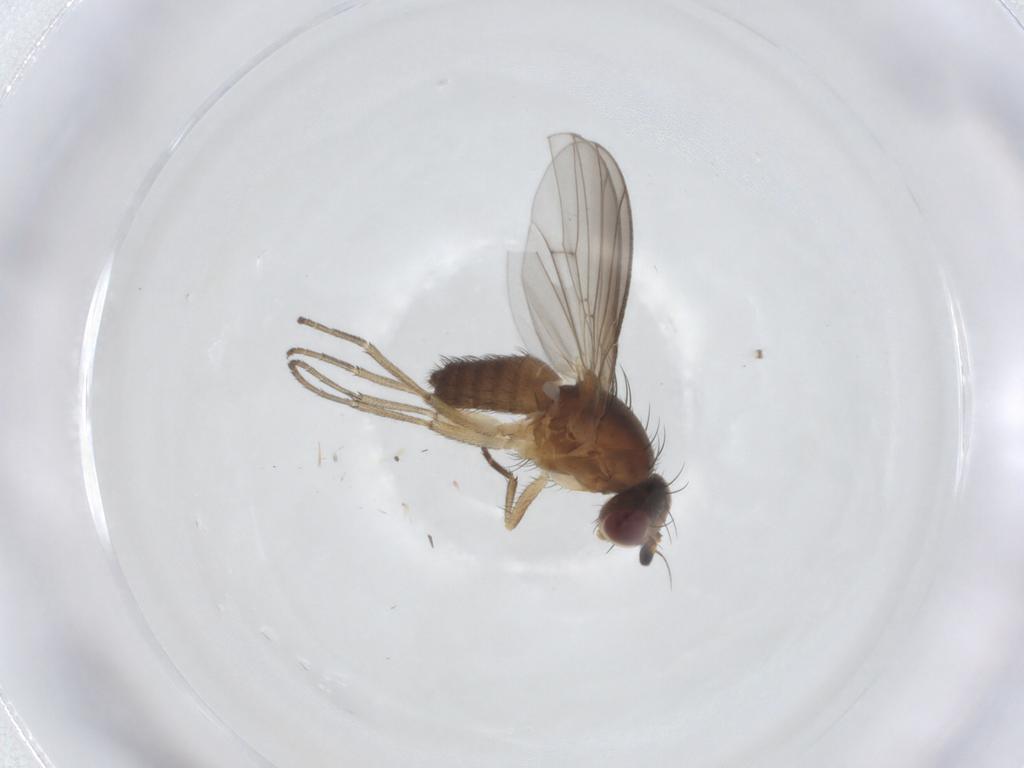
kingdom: Animalia
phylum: Arthropoda
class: Insecta
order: Diptera
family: Heleomyzidae
